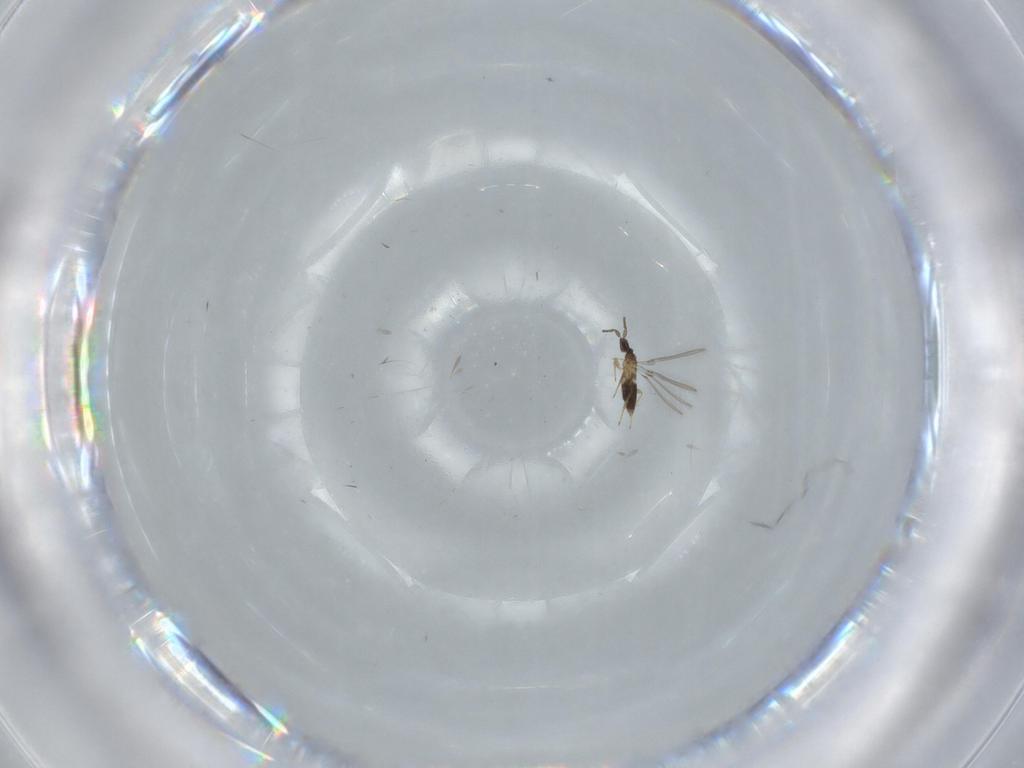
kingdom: Animalia
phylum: Arthropoda
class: Insecta
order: Hymenoptera
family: Scelionidae
